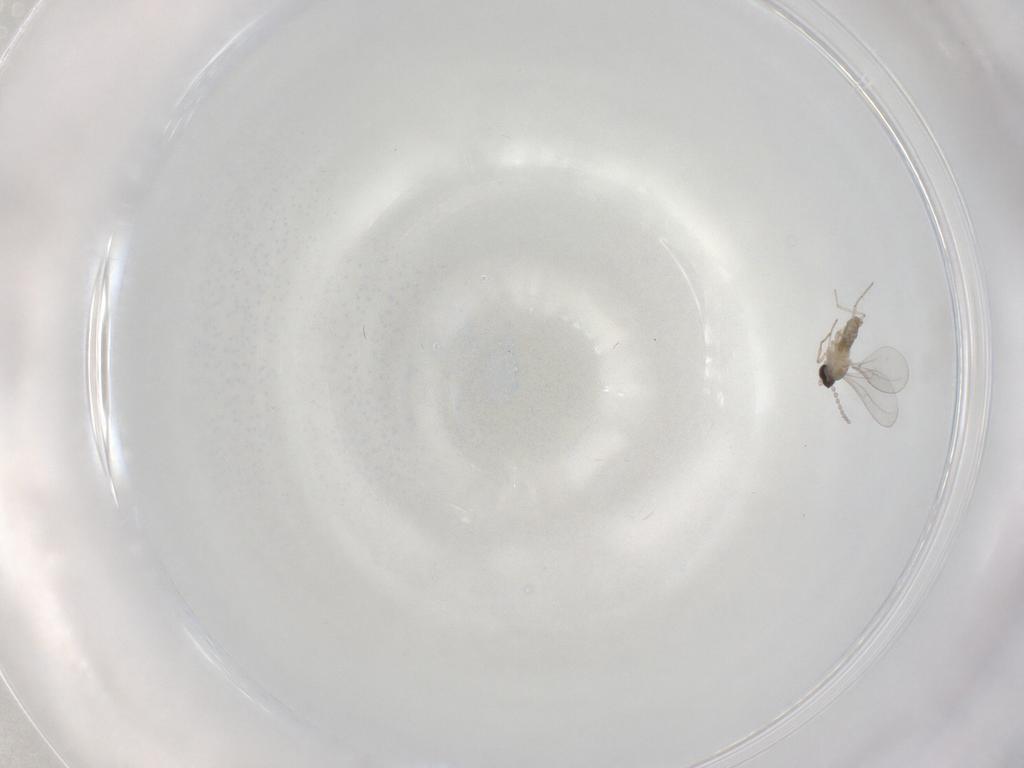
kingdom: Animalia
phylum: Arthropoda
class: Insecta
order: Diptera
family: Cecidomyiidae
